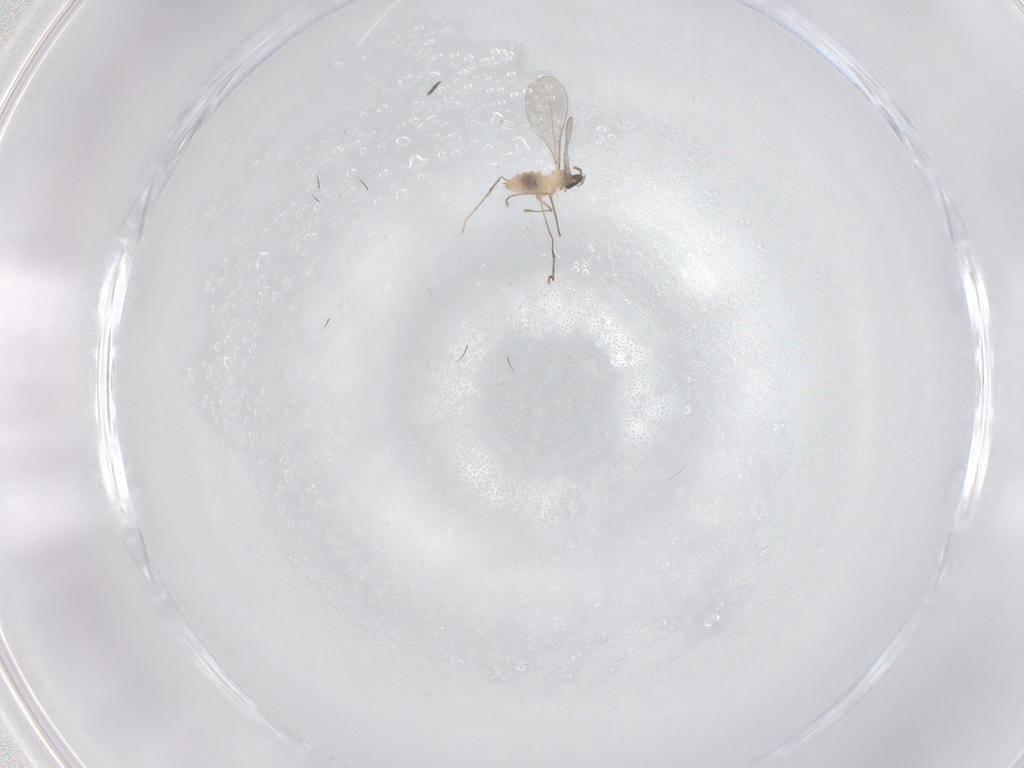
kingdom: Animalia
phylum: Arthropoda
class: Insecta
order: Diptera
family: Cecidomyiidae
